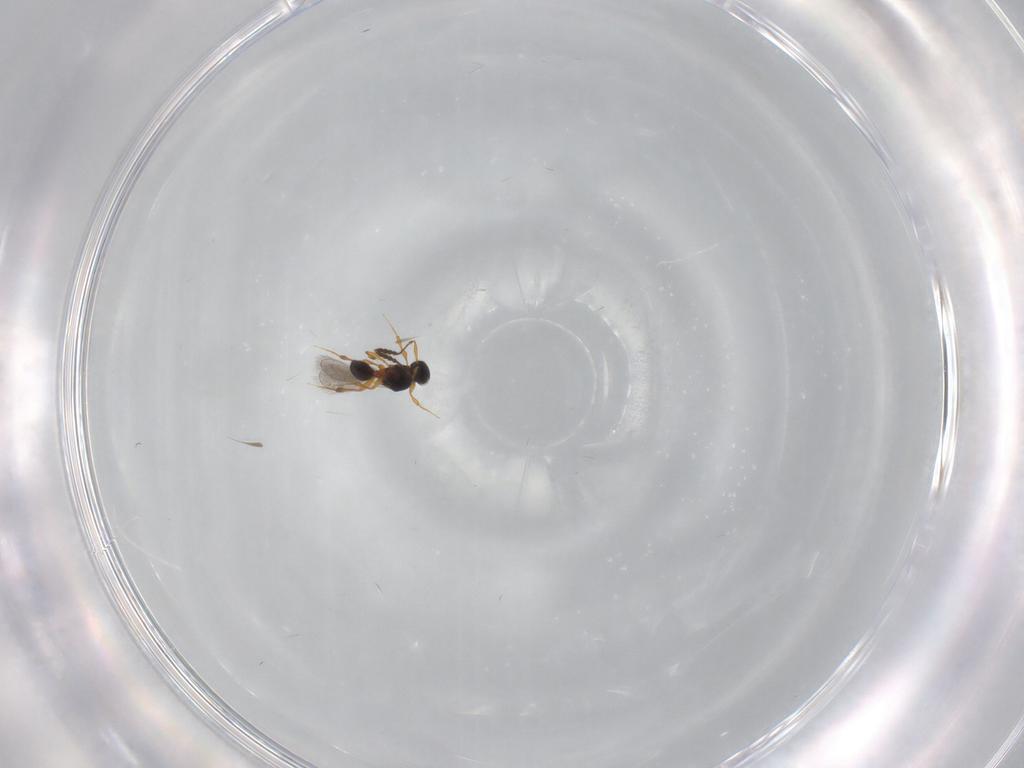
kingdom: Animalia
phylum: Arthropoda
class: Insecta
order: Hymenoptera
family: Platygastridae
